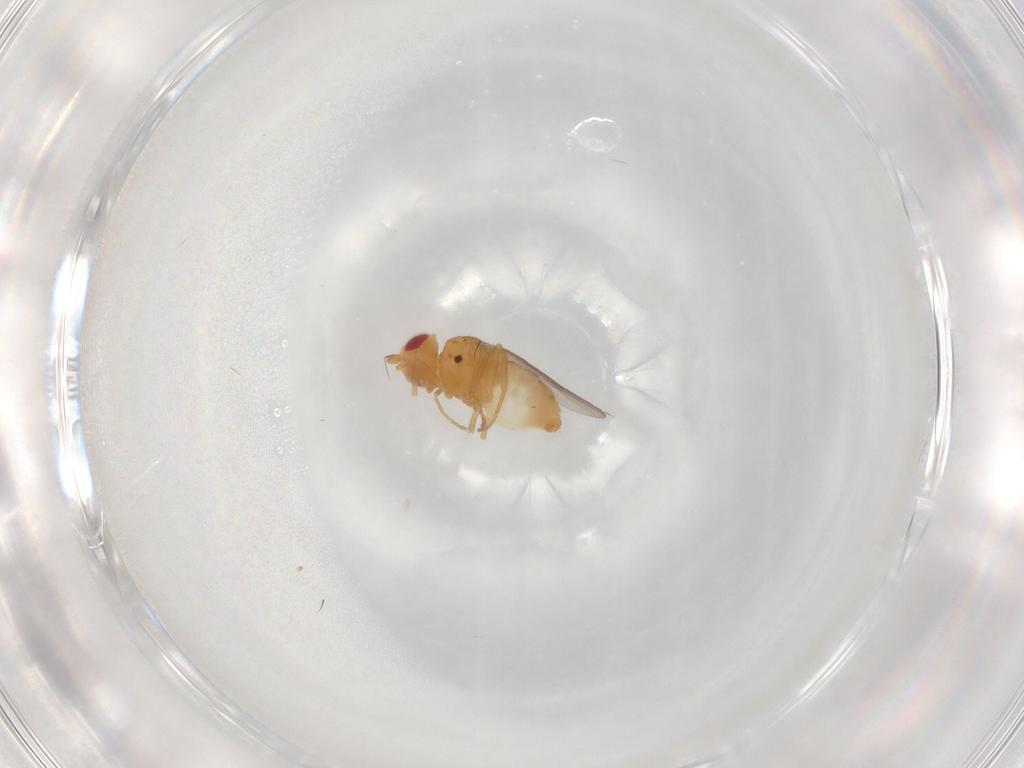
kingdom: Animalia
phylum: Arthropoda
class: Insecta
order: Diptera
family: Chloropidae
